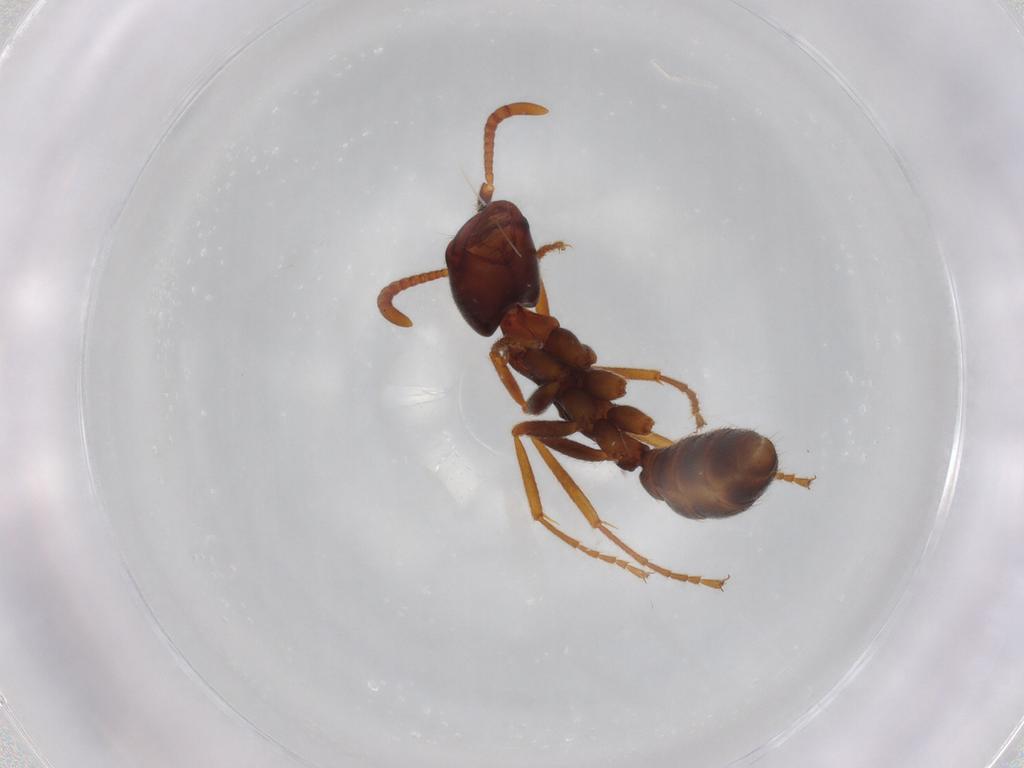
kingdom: Animalia
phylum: Arthropoda
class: Insecta
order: Hymenoptera
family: Formicidae
